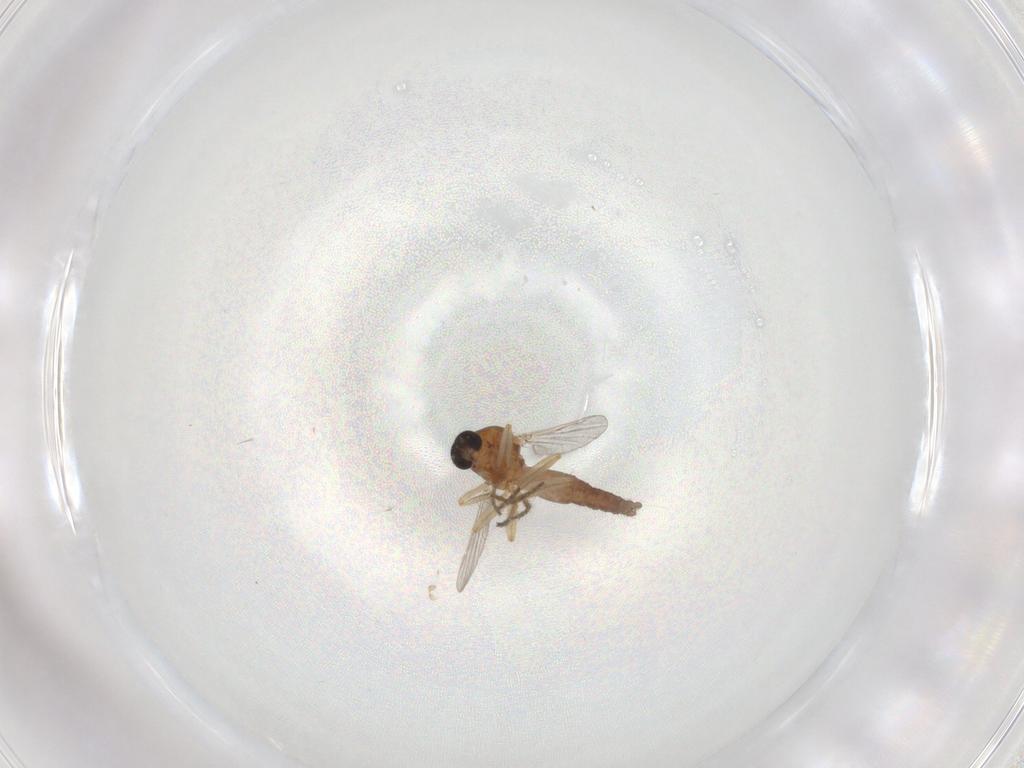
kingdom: Animalia
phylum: Arthropoda
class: Insecta
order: Diptera
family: Ceratopogonidae
